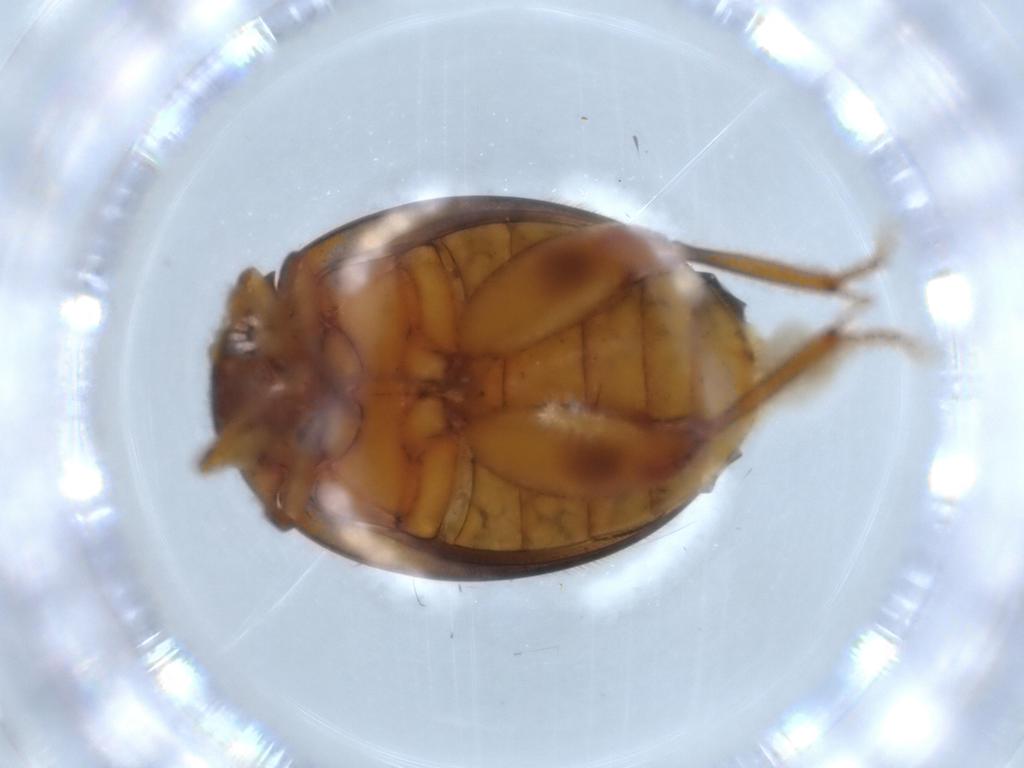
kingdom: Animalia
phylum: Arthropoda
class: Insecta
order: Coleoptera
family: Scirtidae
